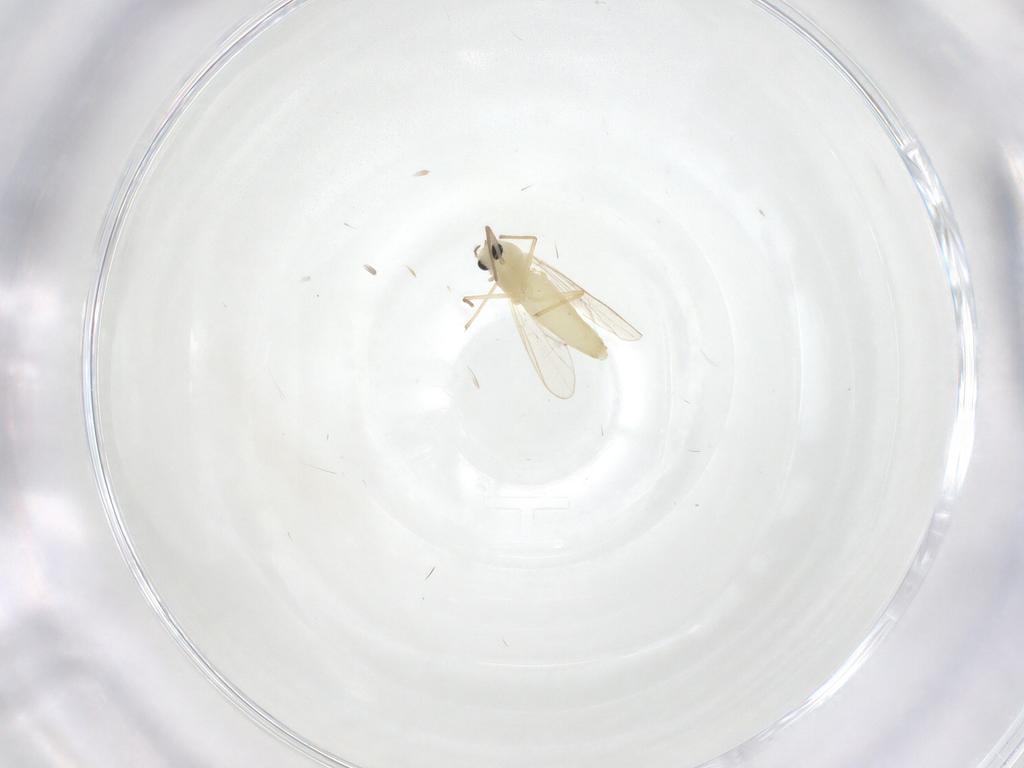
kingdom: Animalia
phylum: Arthropoda
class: Insecta
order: Diptera
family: Chironomidae
